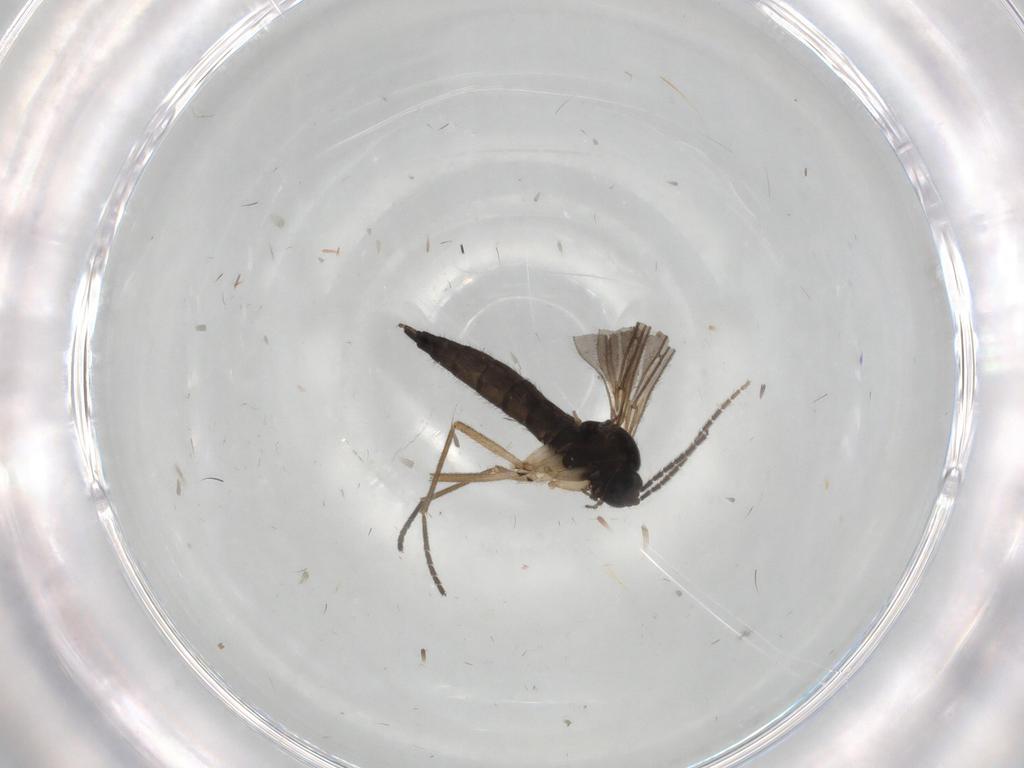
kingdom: Animalia
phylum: Arthropoda
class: Insecta
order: Diptera
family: Sciaridae
